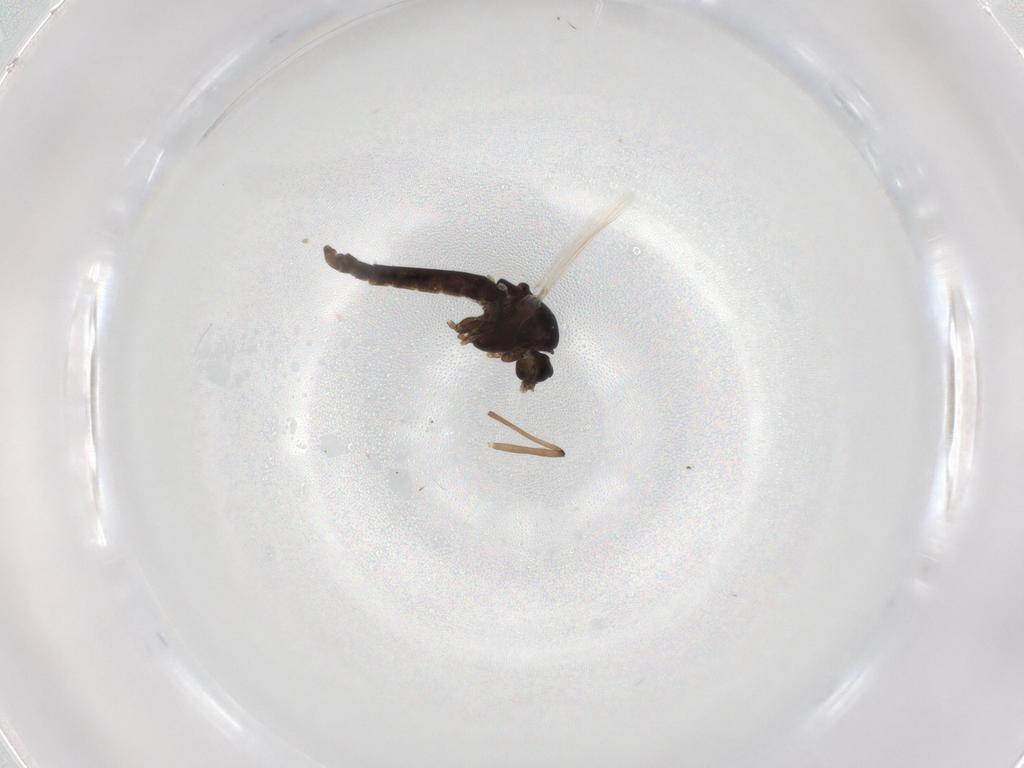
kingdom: Animalia
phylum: Arthropoda
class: Insecta
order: Diptera
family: Chironomidae
